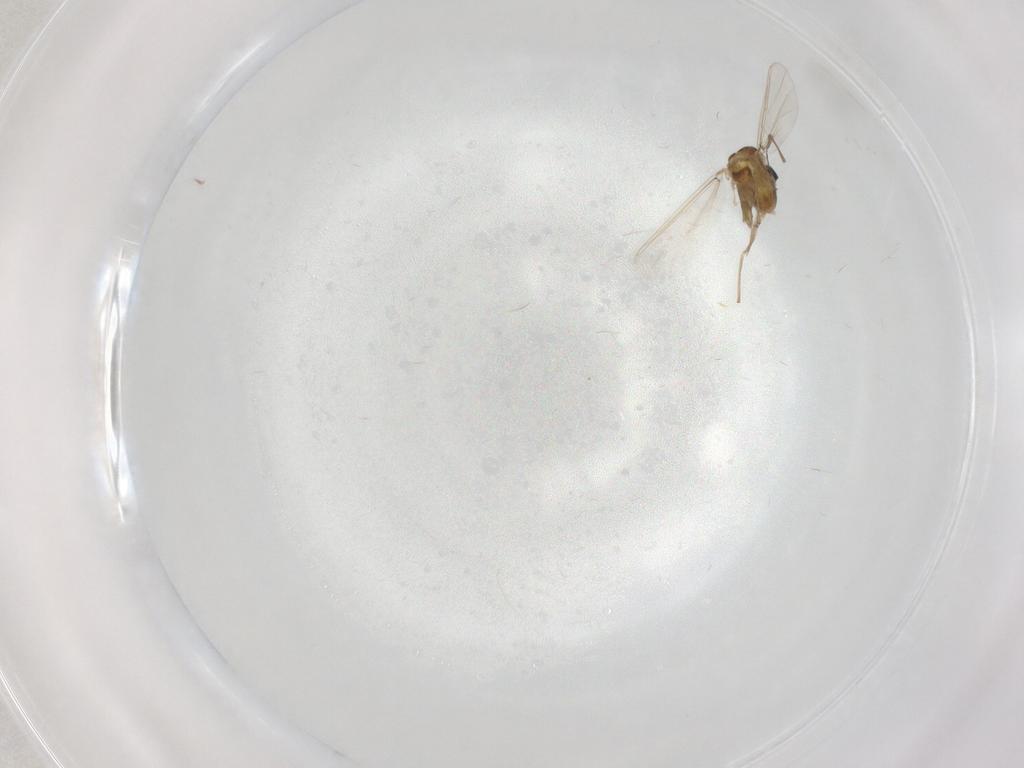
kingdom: Animalia
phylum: Arthropoda
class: Insecta
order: Diptera
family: Chironomidae
